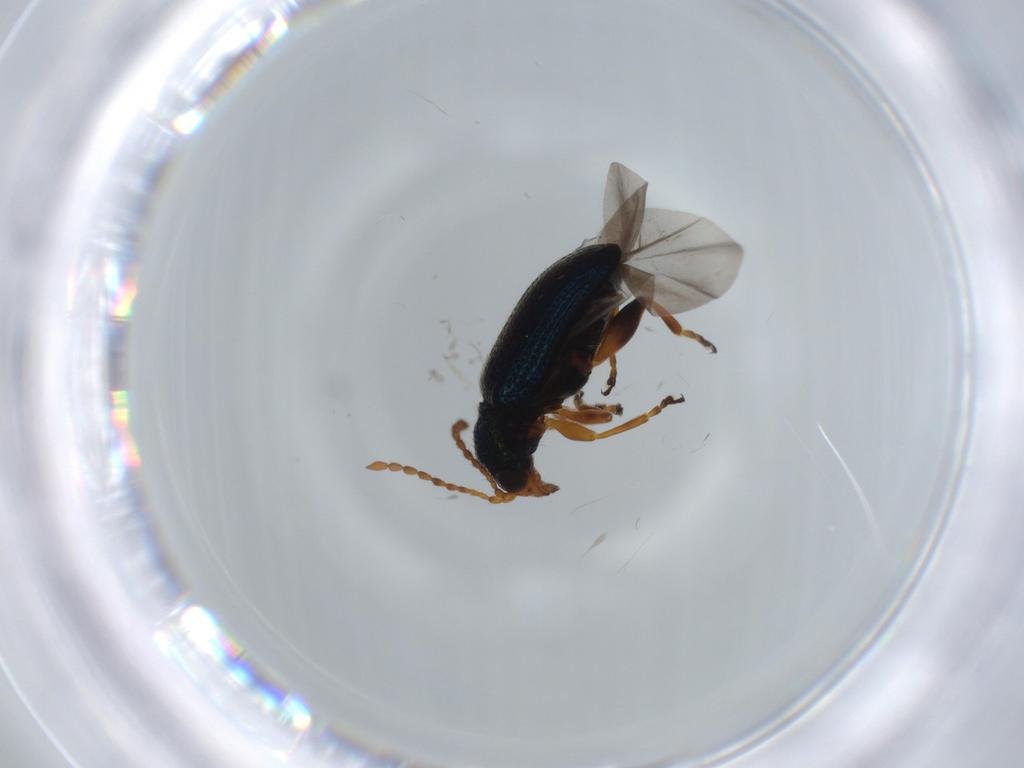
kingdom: Animalia
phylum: Arthropoda
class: Insecta
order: Coleoptera
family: Chrysomelidae
